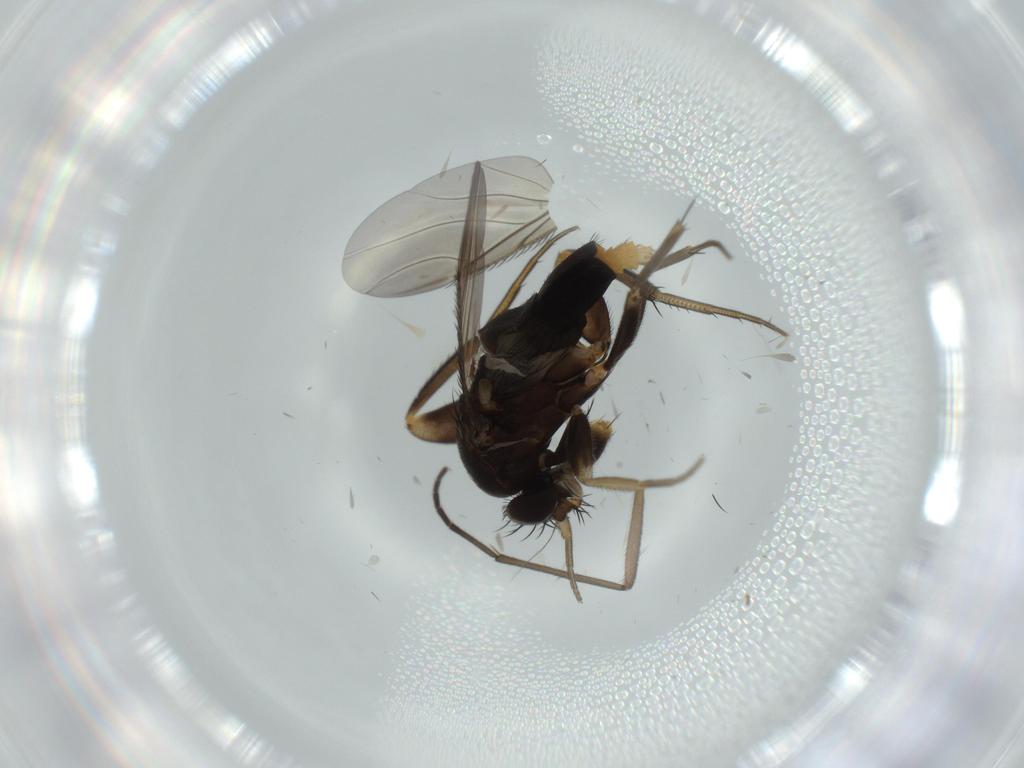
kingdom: Animalia
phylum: Arthropoda
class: Insecta
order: Diptera
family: Phoridae
